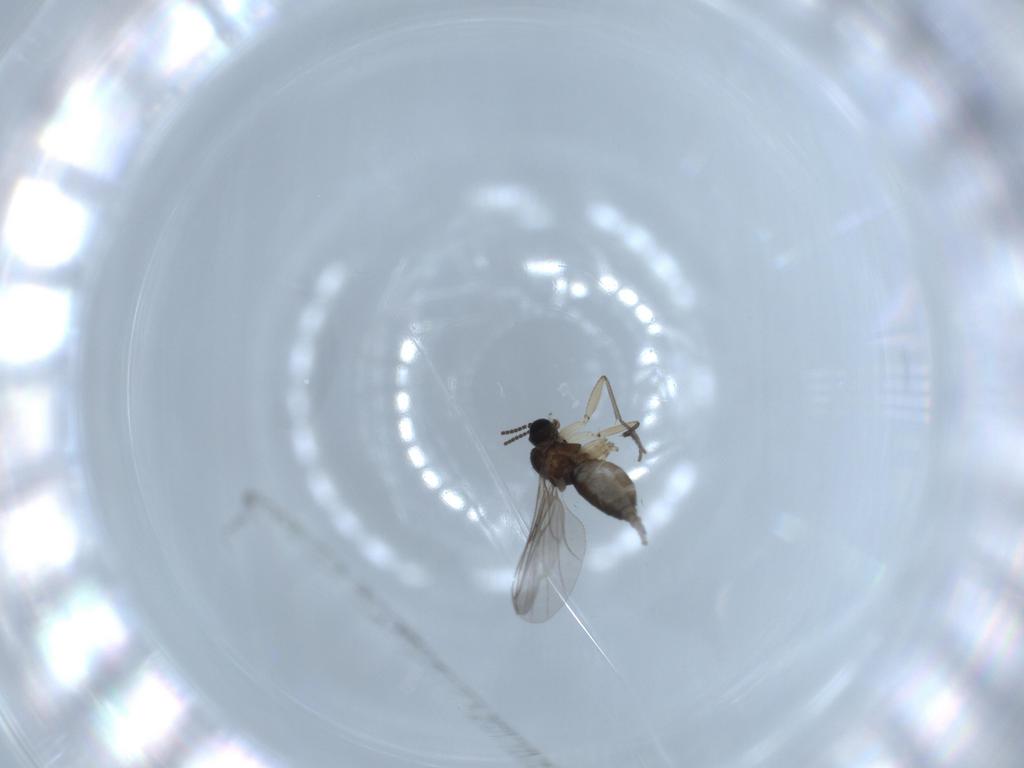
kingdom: Animalia
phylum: Arthropoda
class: Insecta
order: Diptera
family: Sciaridae
